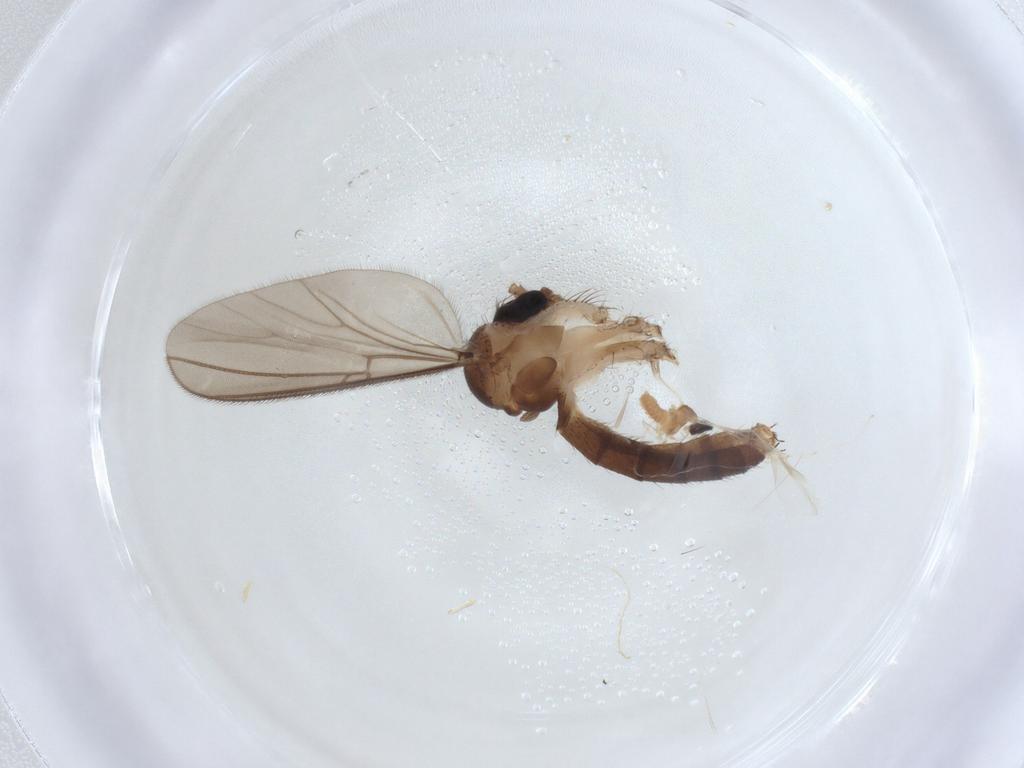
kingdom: Animalia
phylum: Arthropoda
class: Insecta
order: Diptera
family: Mycetophilidae
